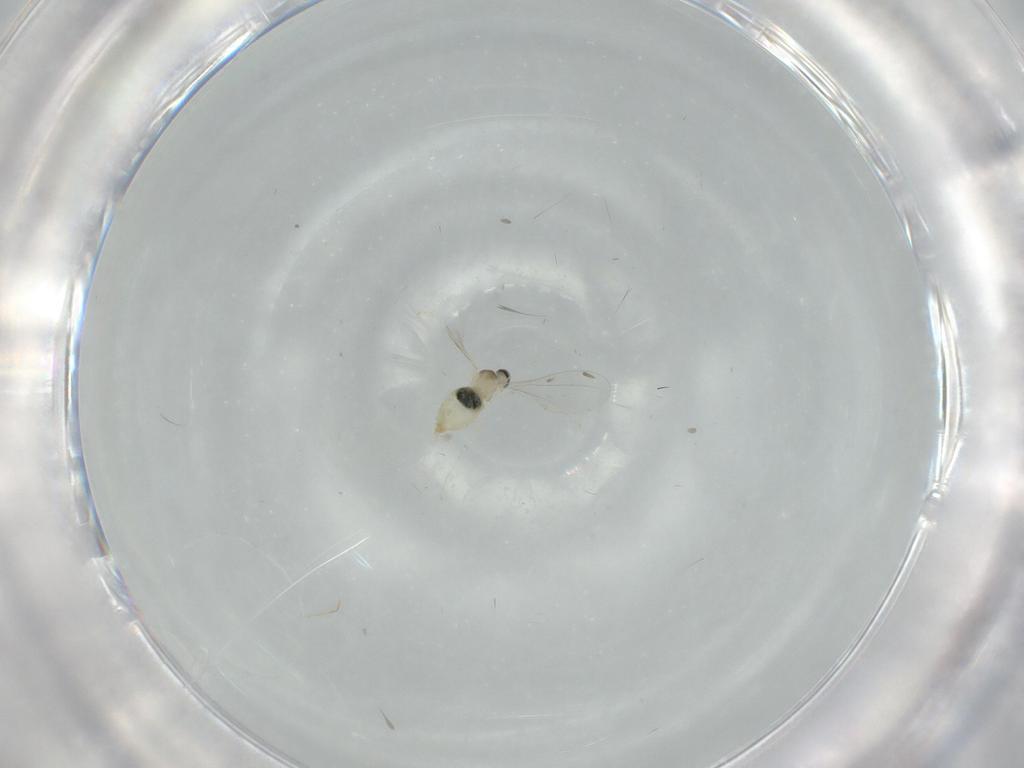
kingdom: Animalia
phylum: Arthropoda
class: Insecta
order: Diptera
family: Cecidomyiidae
